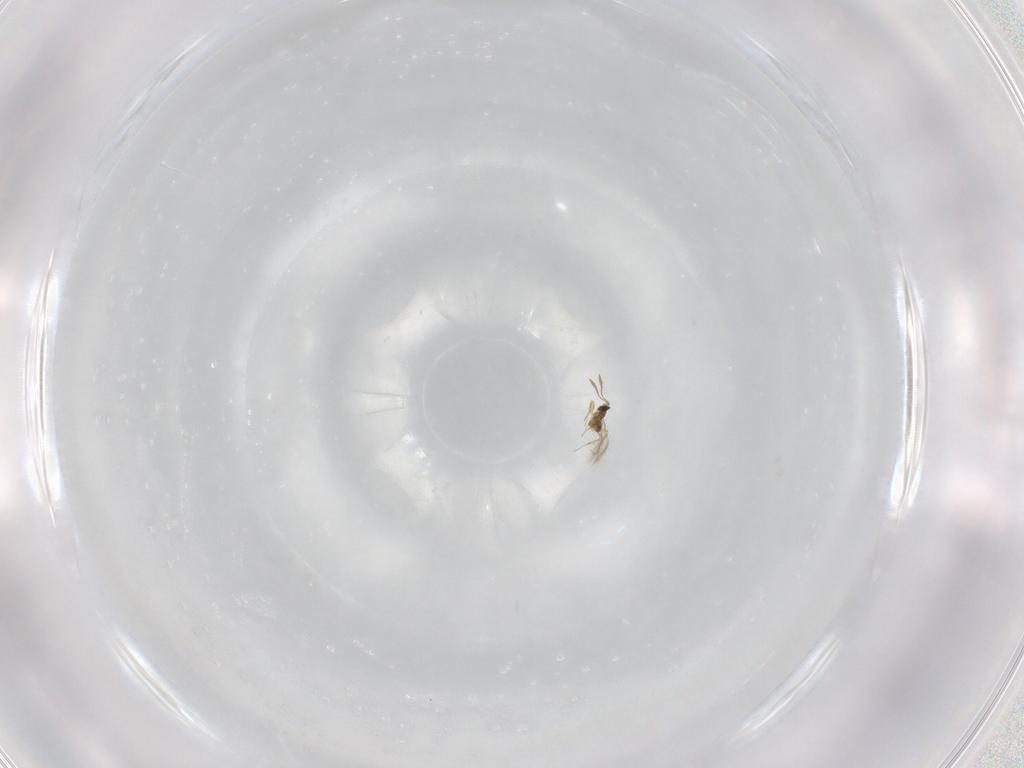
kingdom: Animalia
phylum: Arthropoda
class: Insecta
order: Hymenoptera
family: Mymaridae
